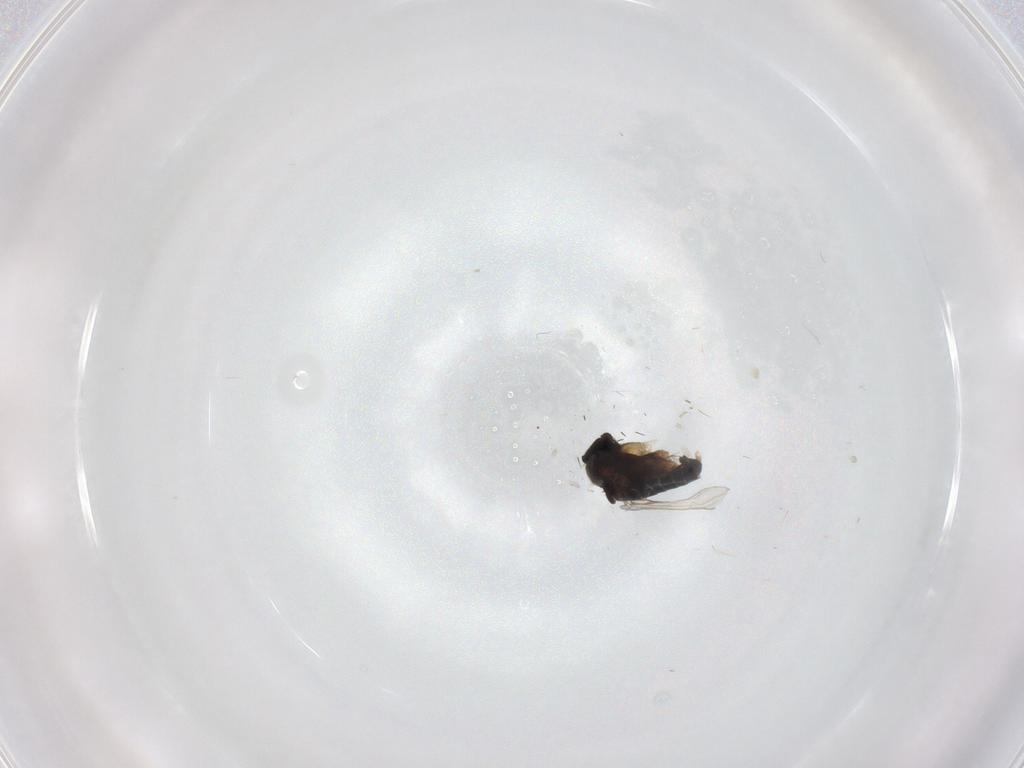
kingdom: Animalia
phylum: Arthropoda
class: Insecta
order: Diptera
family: Phoridae
